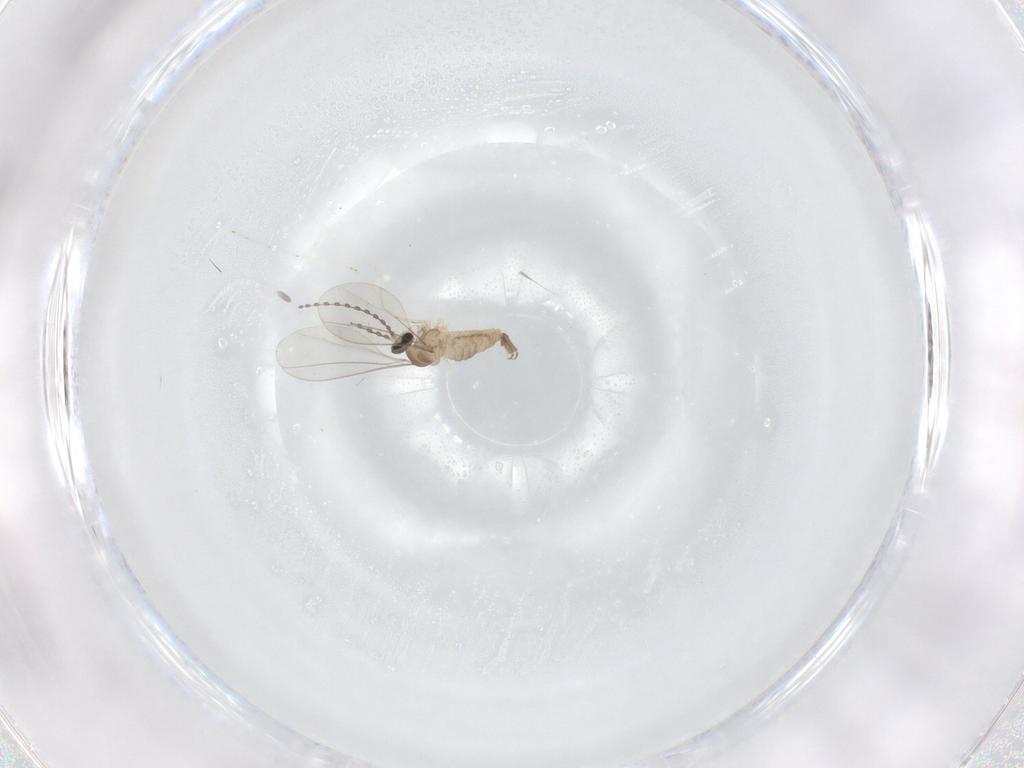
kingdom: Animalia
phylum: Arthropoda
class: Insecta
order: Diptera
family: Cecidomyiidae
